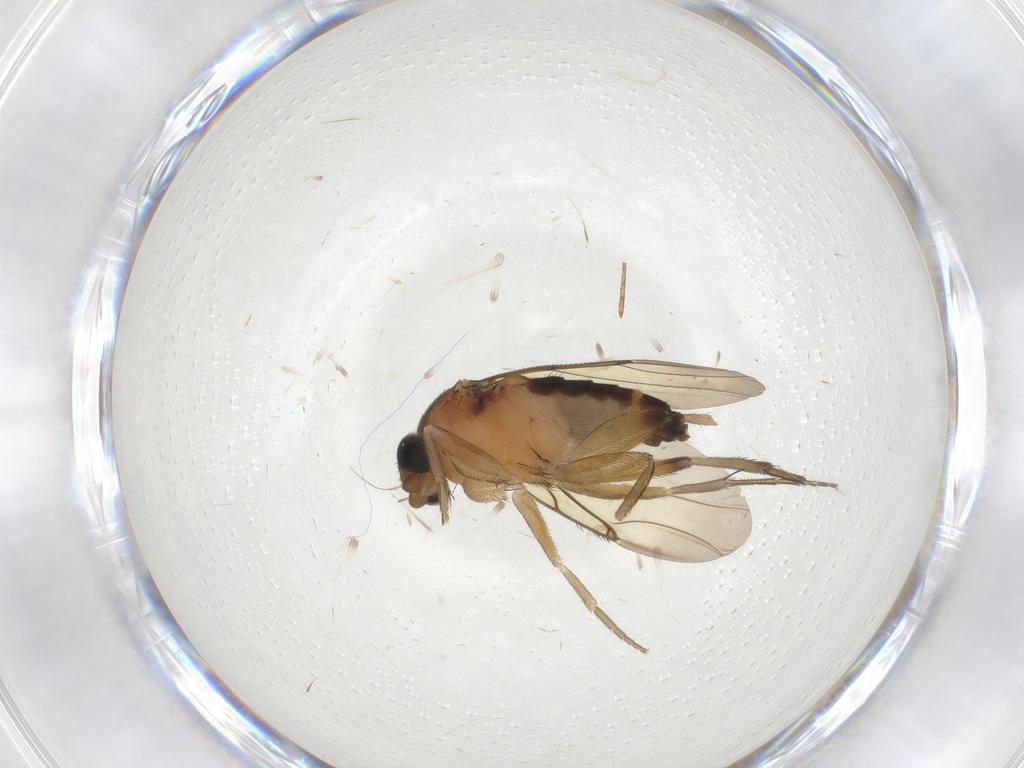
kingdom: Animalia
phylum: Arthropoda
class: Insecta
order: Diptera
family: Phoridae
